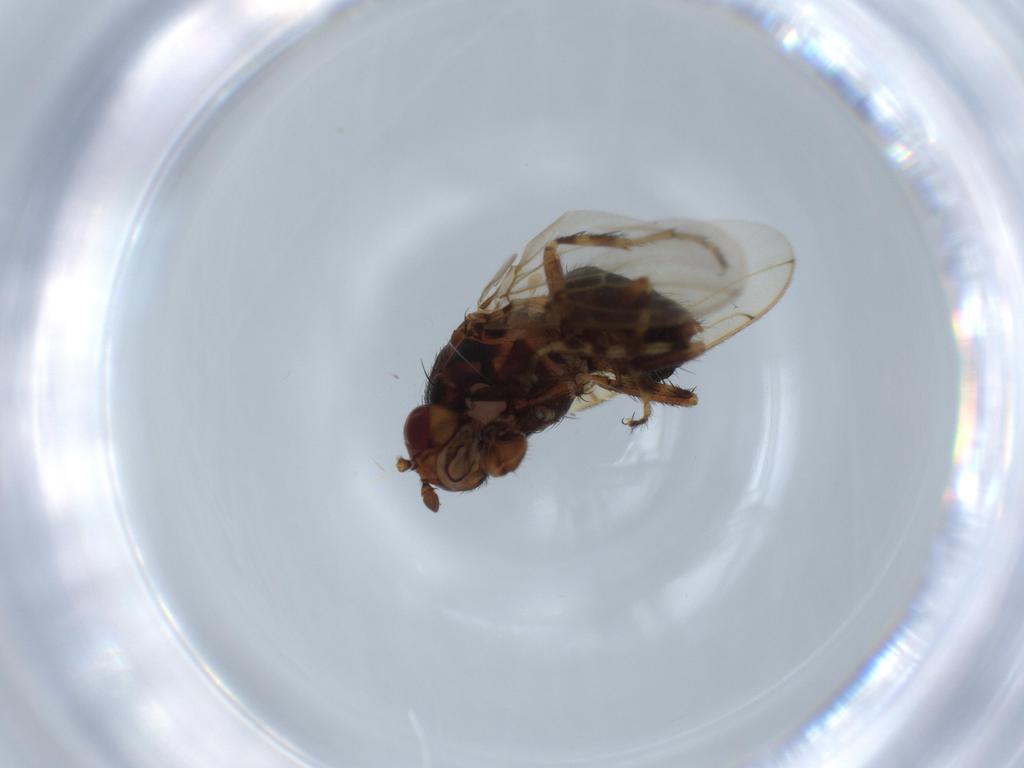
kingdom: Animalia
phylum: Arthropoda
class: Insecta
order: Diptera
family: Sphaeroceridae
